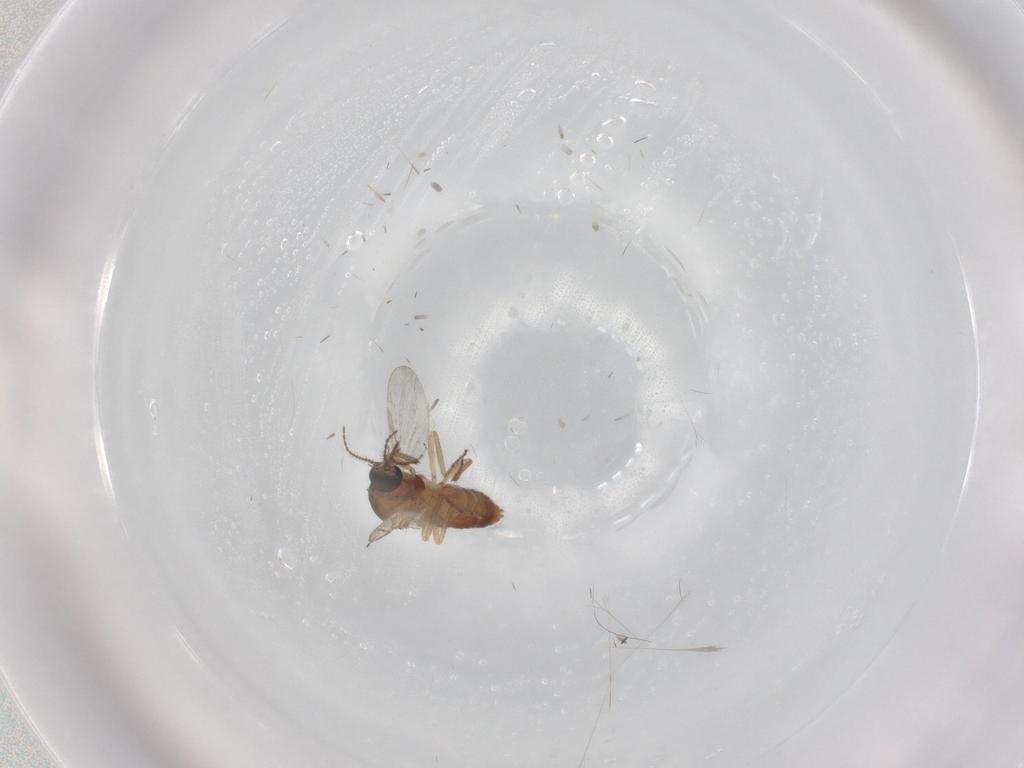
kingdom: Animalia
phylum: Arthropoda
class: Insecta
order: Diptera
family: Ceratopogonidae
